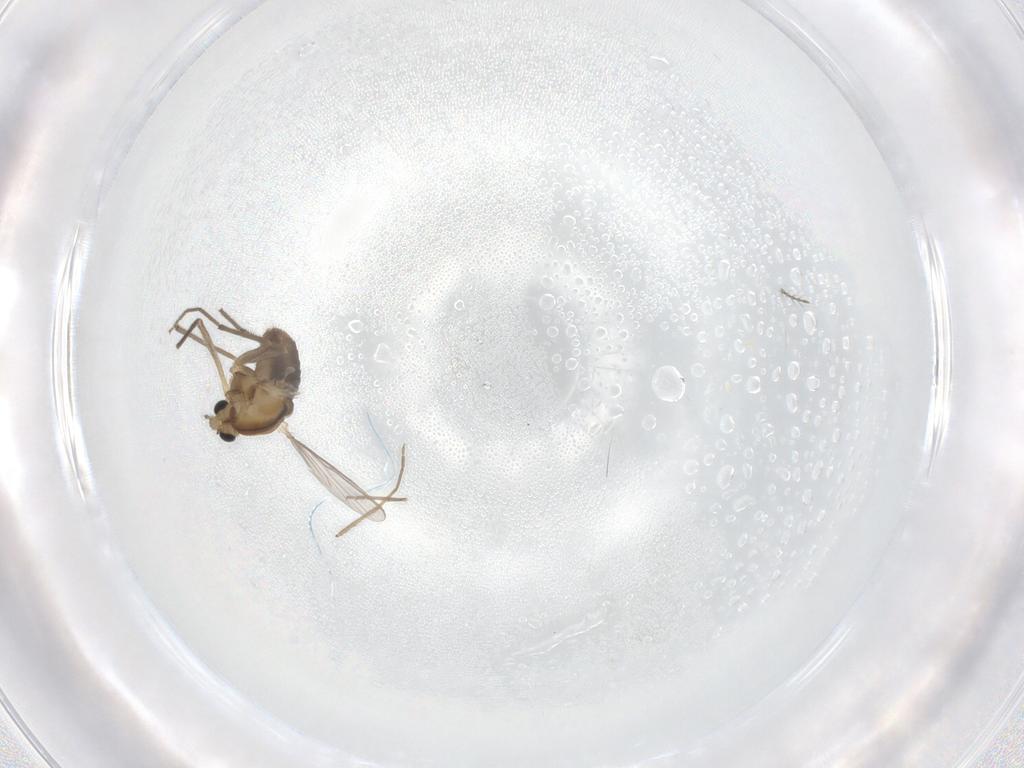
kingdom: Animalia
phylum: Arthropoda
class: Insecta
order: Diptera
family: Chironomidae
